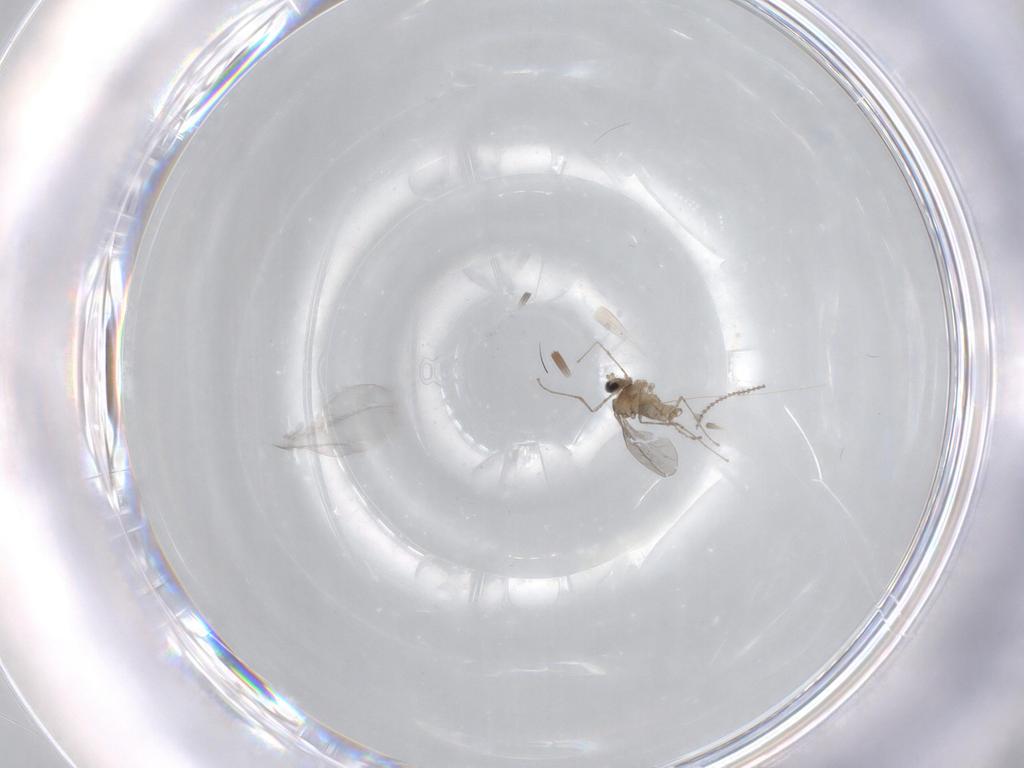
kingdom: Animalia
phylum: Arthropoda
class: Insecta
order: Diptera
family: Cecidomyiidae
